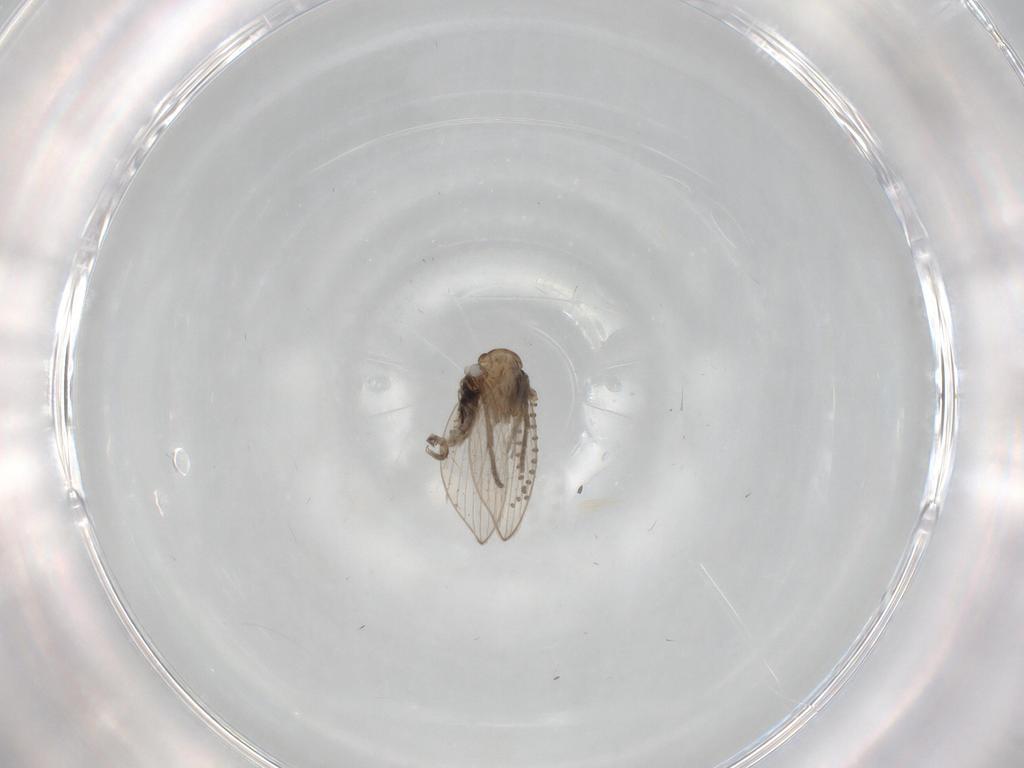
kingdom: Animalia
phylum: Arthropoda
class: Insecta
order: Diptera
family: Psychodidae
